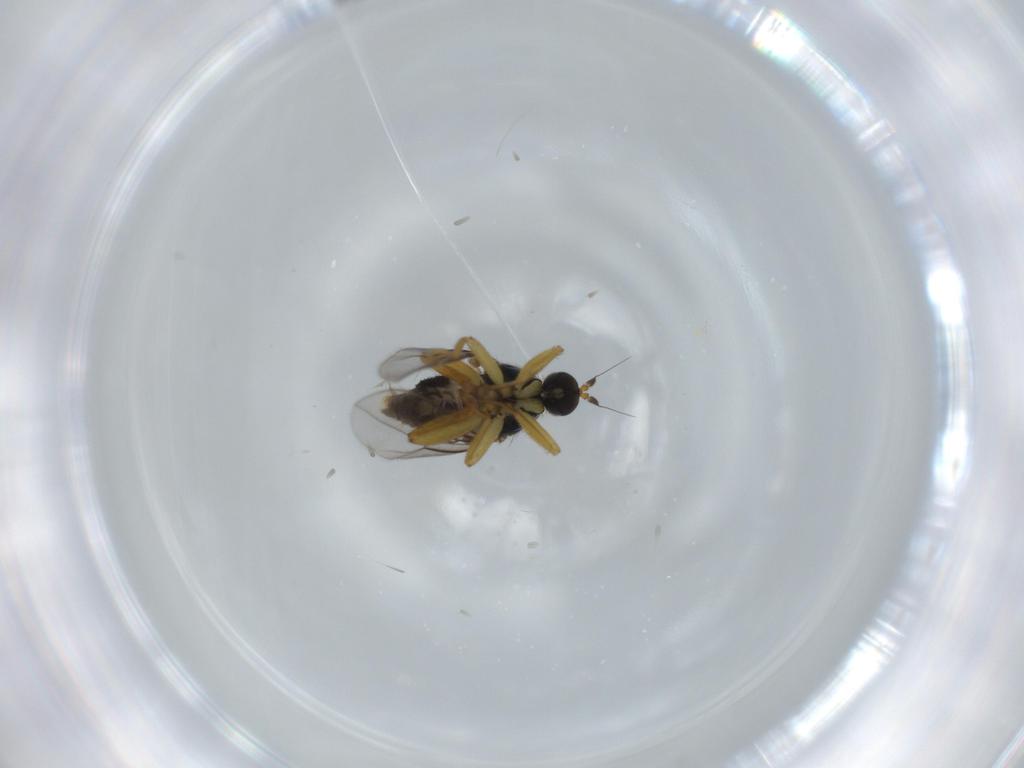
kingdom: Animalia
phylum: Arthropoda
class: Insecta
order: Diptera
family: Hybotidae
